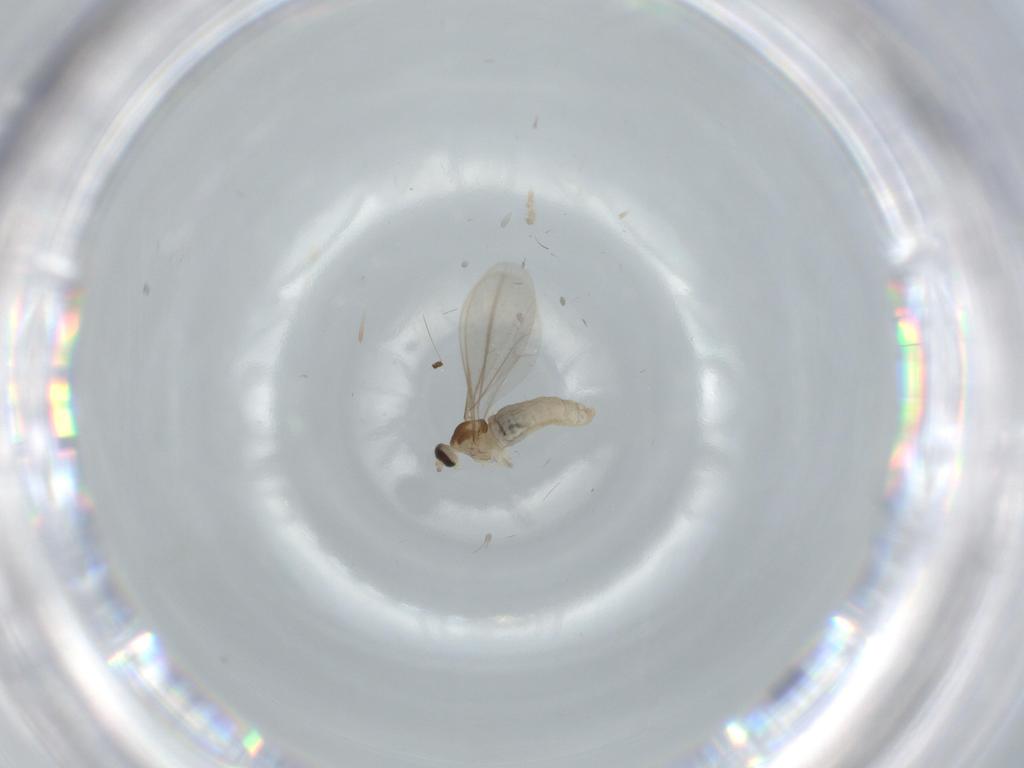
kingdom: Animalia
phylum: Arthropoda
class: Insecta
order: Diptera
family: Cecidomyiidae
